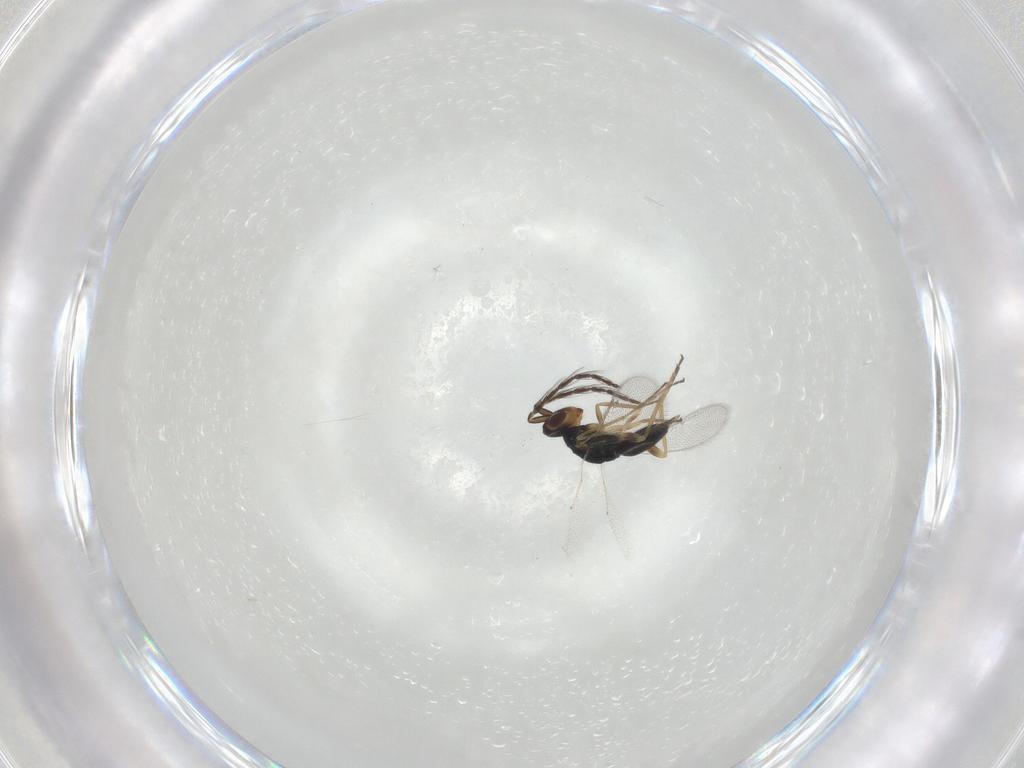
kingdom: Animalia
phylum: Arthropoda
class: Insecta
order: Hymenoptera
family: Eulophidae
